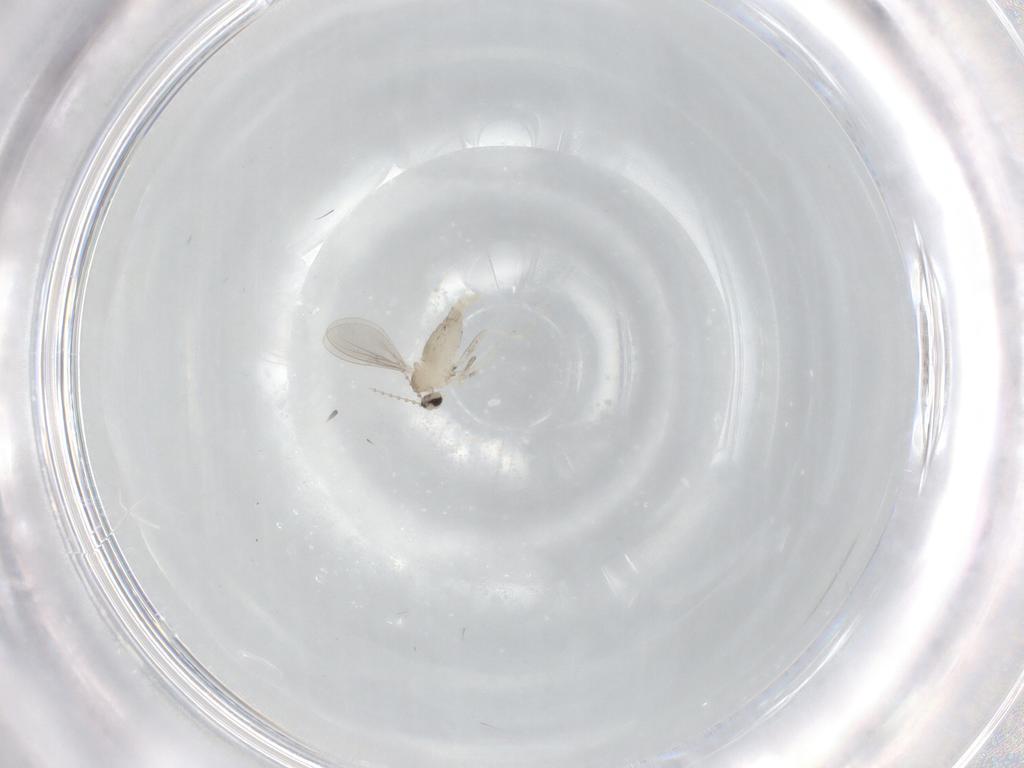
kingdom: Animalia
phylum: Arthropoda
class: Insecta
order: Diptera
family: Cecidomyiidae
